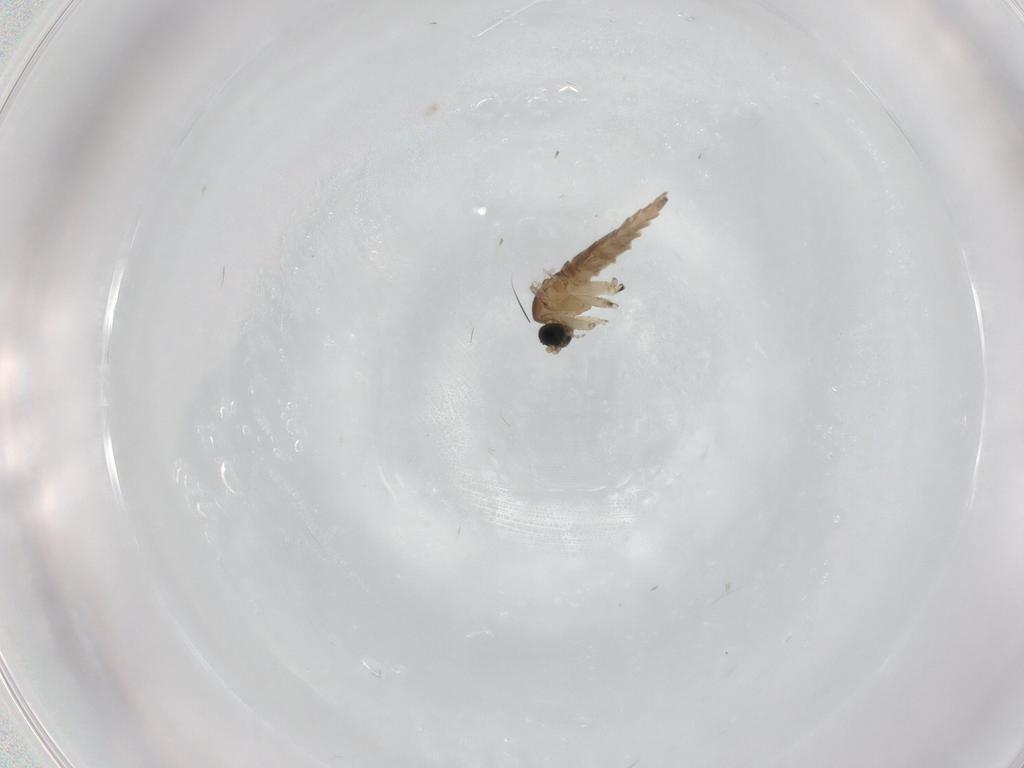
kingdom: Animalia
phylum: Arthropoda
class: Insecta
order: Diptera
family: Sciaridae
